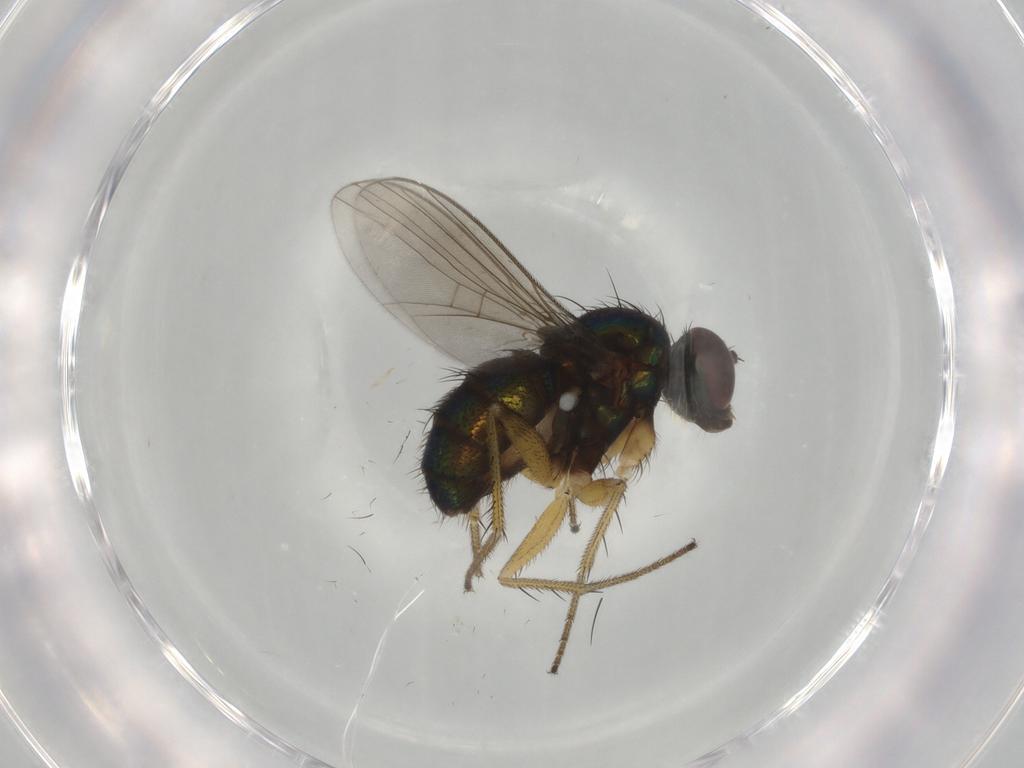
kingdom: Animalia
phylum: Arthropoda
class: Insecta
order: Diptera
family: Dolichopodidae
